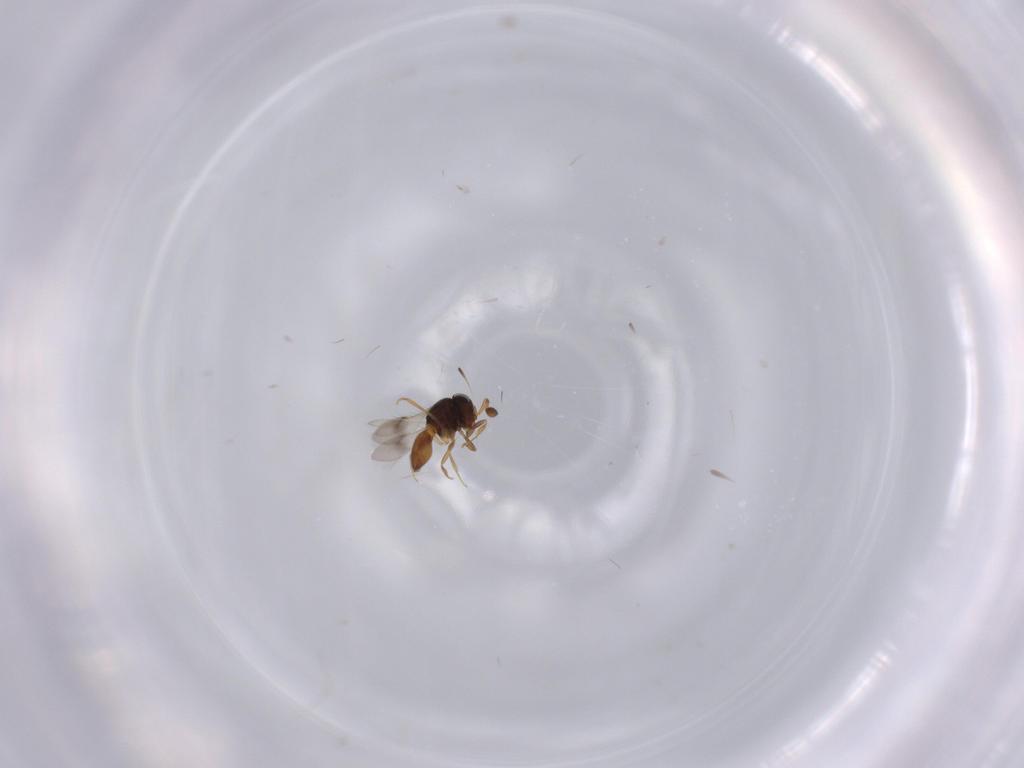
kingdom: Animalia
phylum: Arthropoda
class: Insecta
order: Hymenoptera
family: Scelionidae
